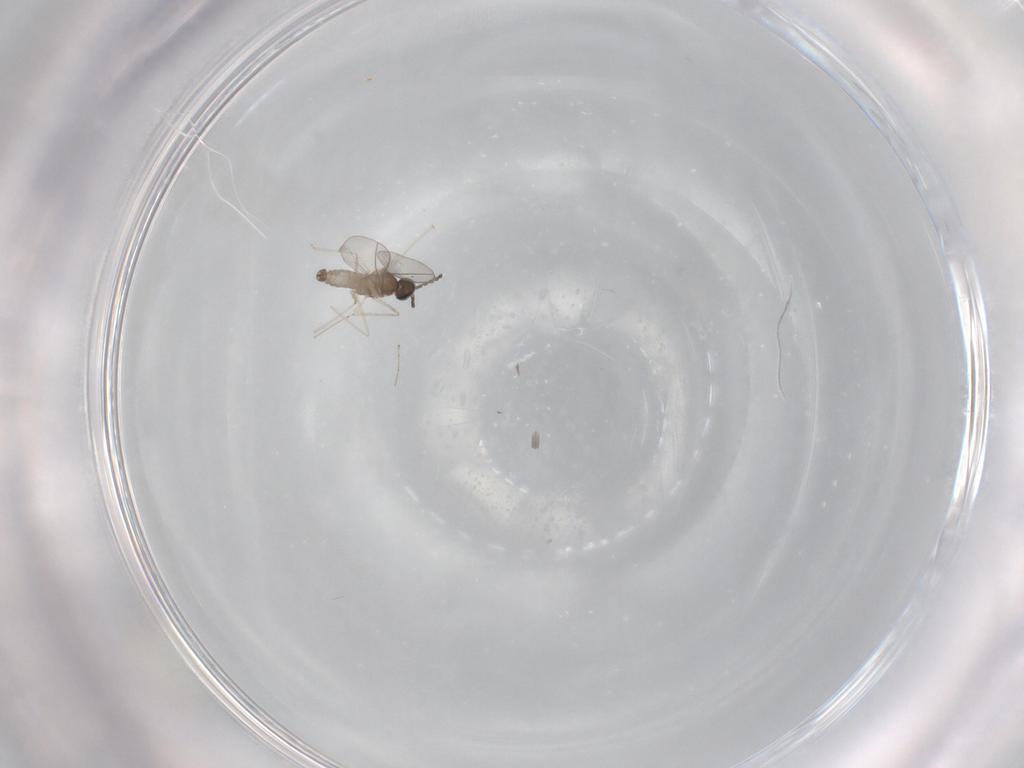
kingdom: Animalia
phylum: Arthropoda
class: Insecta
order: Diptera
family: Cecidomyiidae
